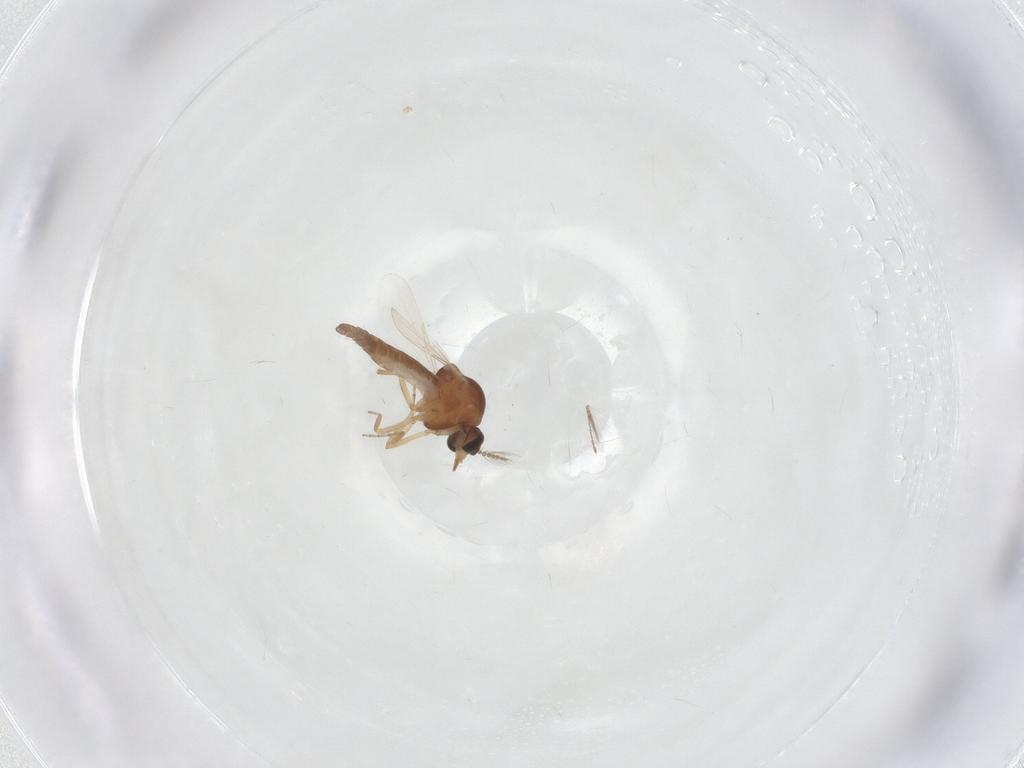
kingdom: Animalia
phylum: Arthropoda
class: Insecta
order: Diptera
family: Ceratopogonidae
